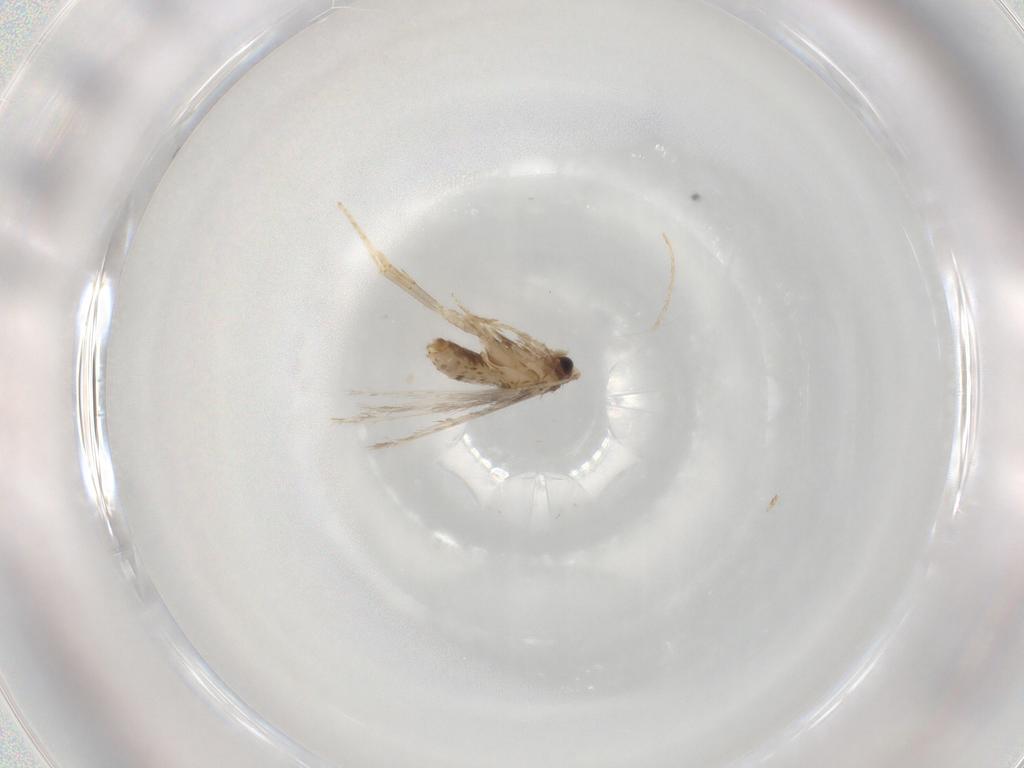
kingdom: Animalia
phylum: Arthropoda
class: Insecta
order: Lepidoptera
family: Nepticulidae
